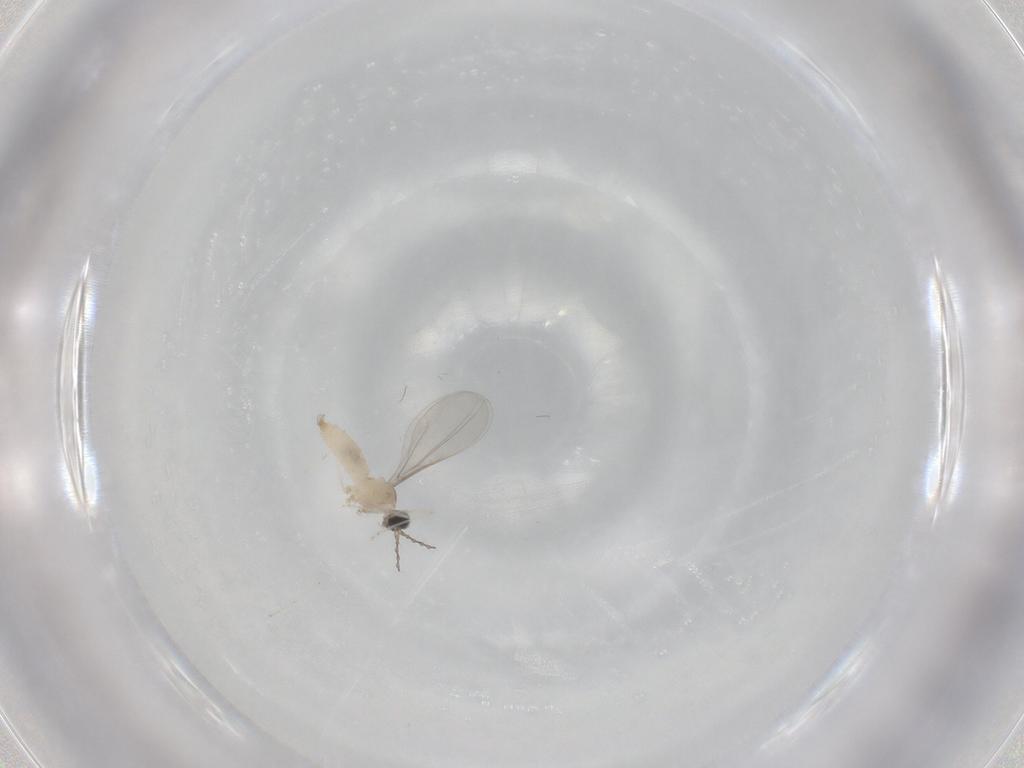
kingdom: Animalia
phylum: Arthropoda
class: Insecta
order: Diptera
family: Cecidomyiidae
